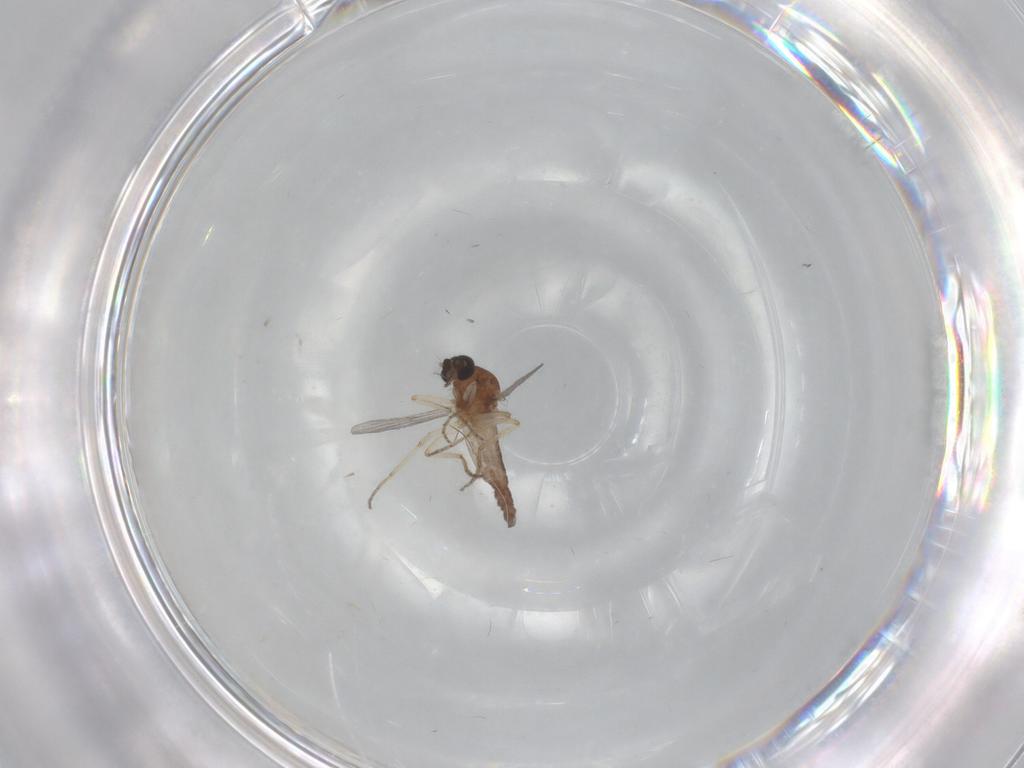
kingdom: Animalia
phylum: Arthropoda
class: Insecta
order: Diptera
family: Ceratopogonidae
